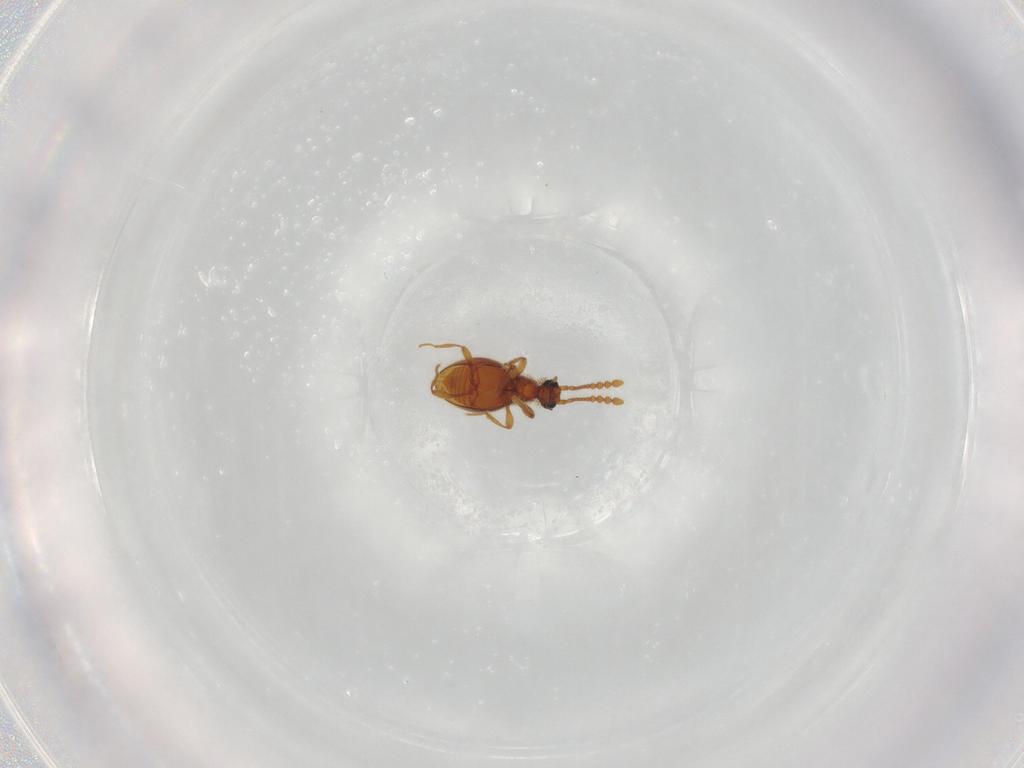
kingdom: Animalia
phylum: Arthropoda
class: Insecta
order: Coleoptera
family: Staphylinidae
